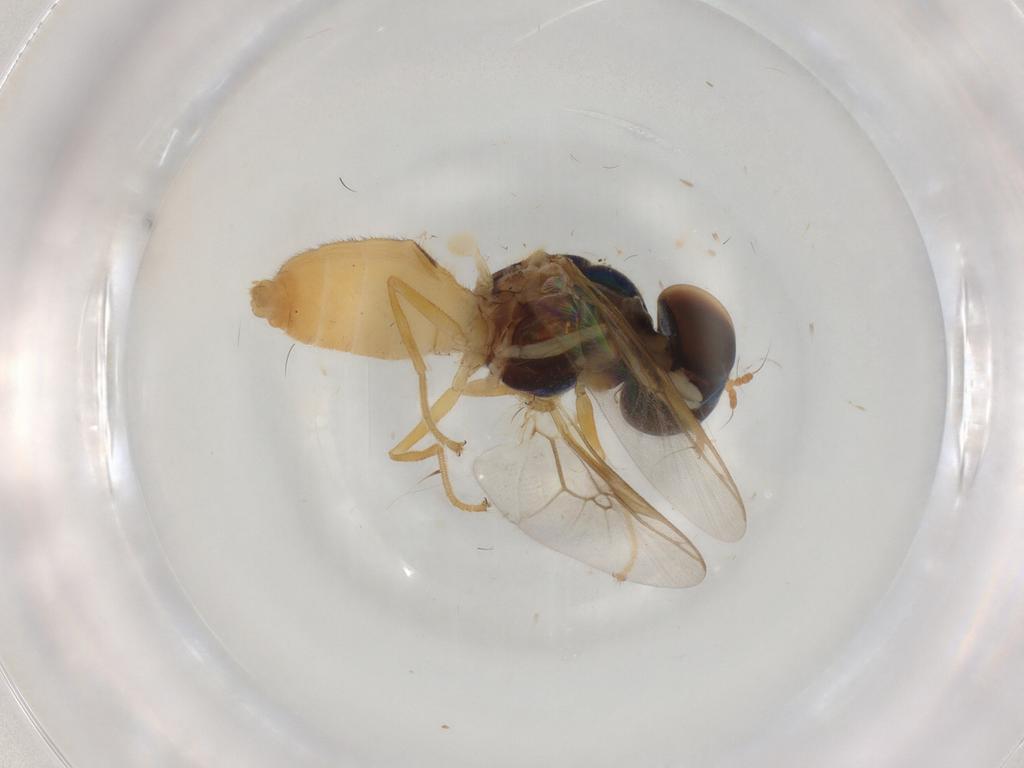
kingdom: Animalia
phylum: Arthropoda
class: Insecta
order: Diptera
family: Stratiomyidae
